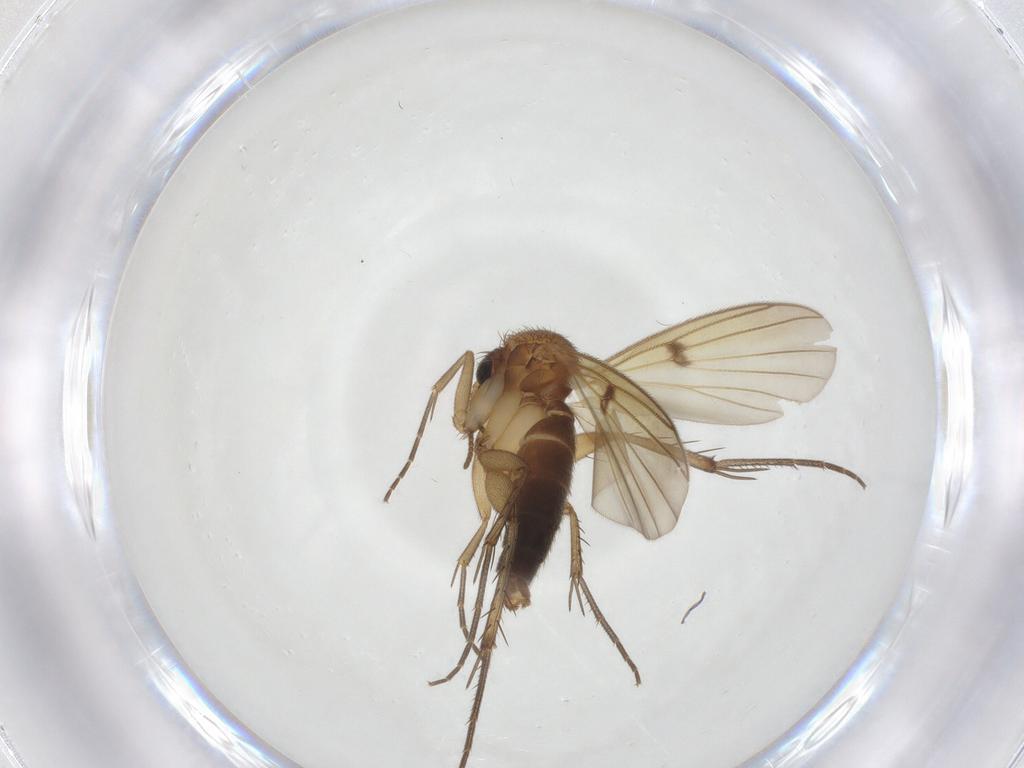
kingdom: Animalia
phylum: Arthropoda
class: Insecta
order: Diptera
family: Mycetophilidae
